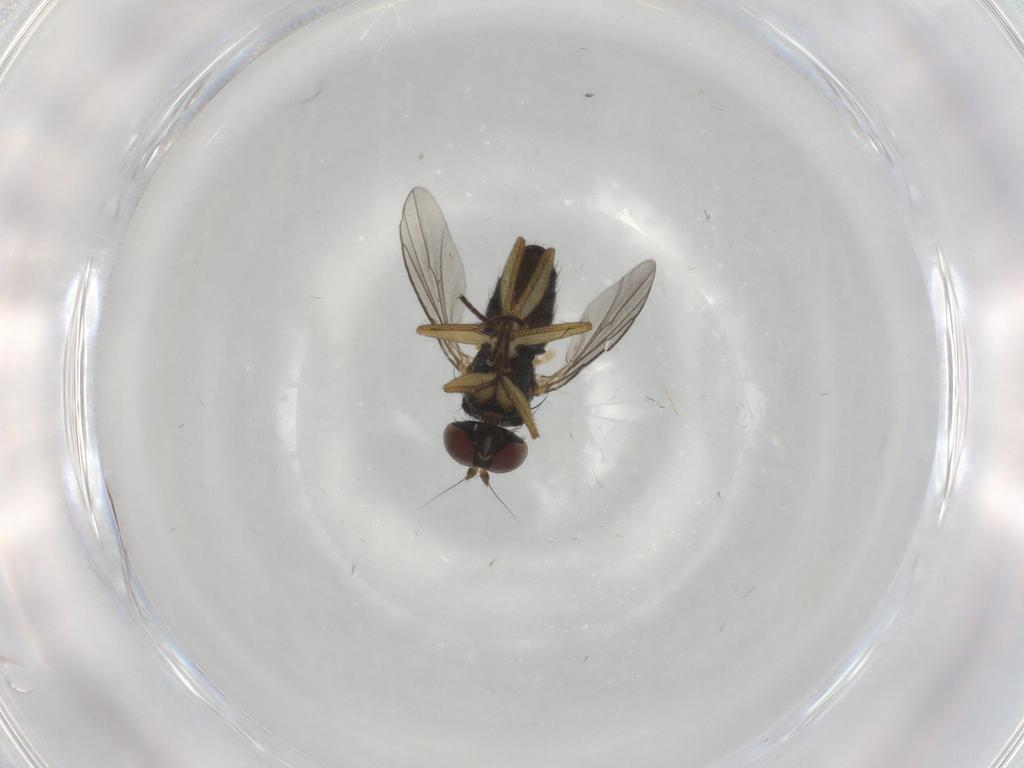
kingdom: Animalia
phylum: Arthropoda
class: Insecta
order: Diptera
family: Dolichopodidae
